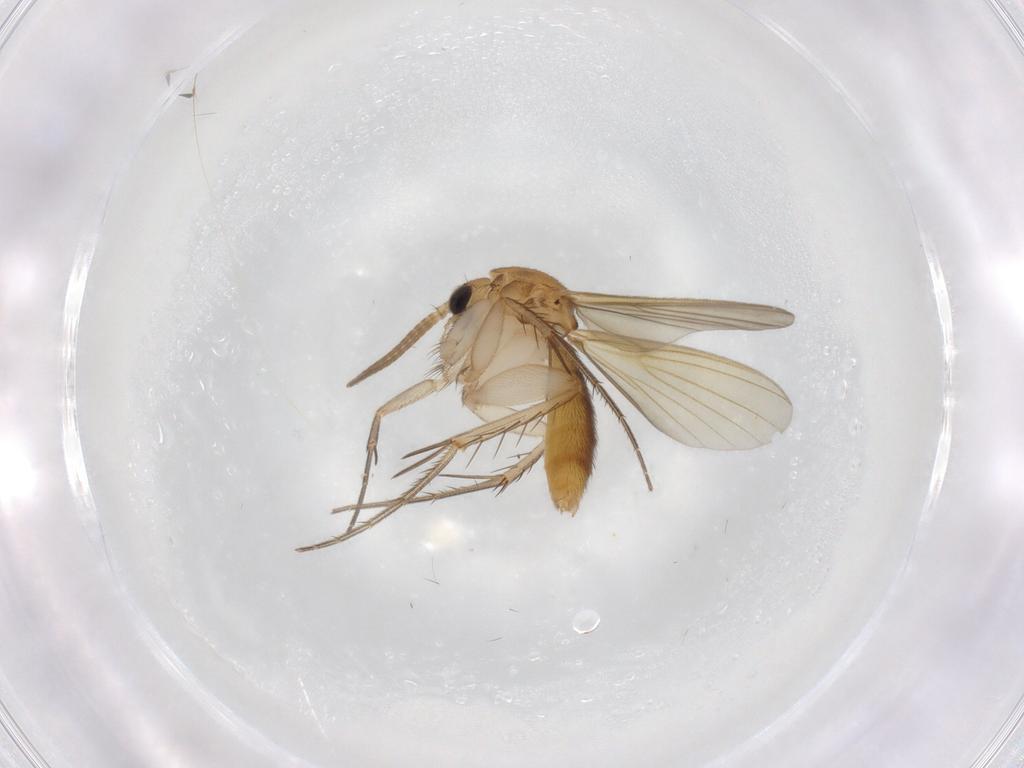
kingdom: Animalia
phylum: Arthropoda
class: Insecta
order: Diptera
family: Mycetophilidae
